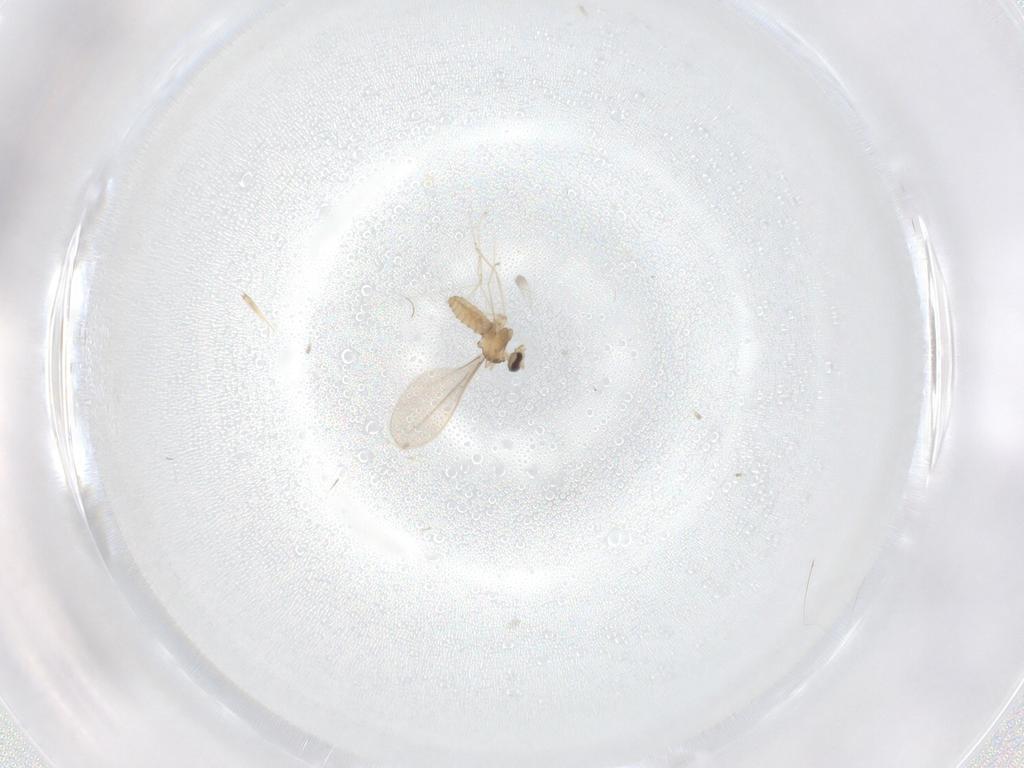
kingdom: Animalia
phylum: Arthropoda
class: Insecta
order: Diptera
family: Cecidomyiidae
